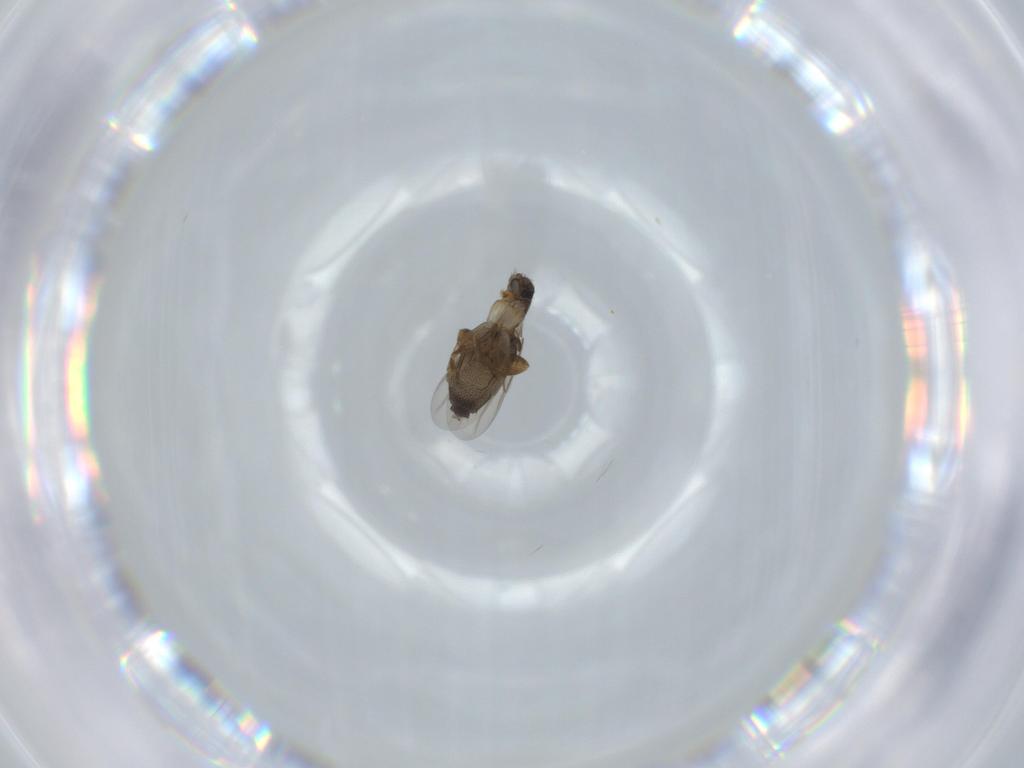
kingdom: Animalia
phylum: Arthropoda
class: Insecta
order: Diptera
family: Phoridae
